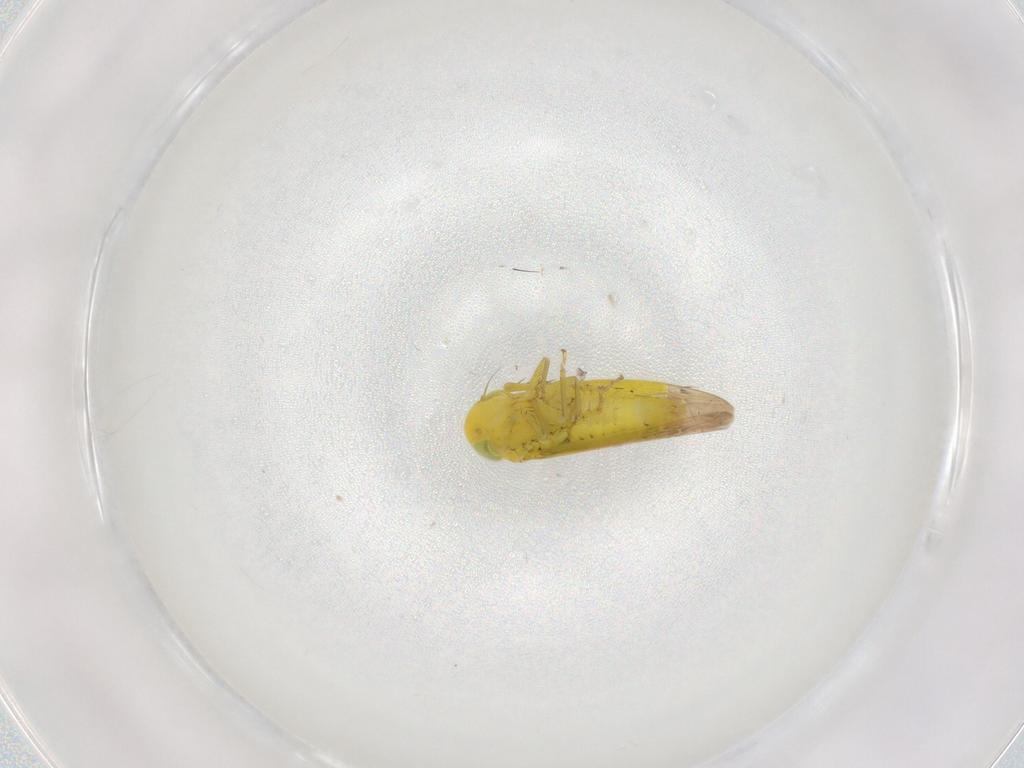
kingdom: Animalia
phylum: Arthropoda
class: Insecta
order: Hemiptera
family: Cicadellidae
